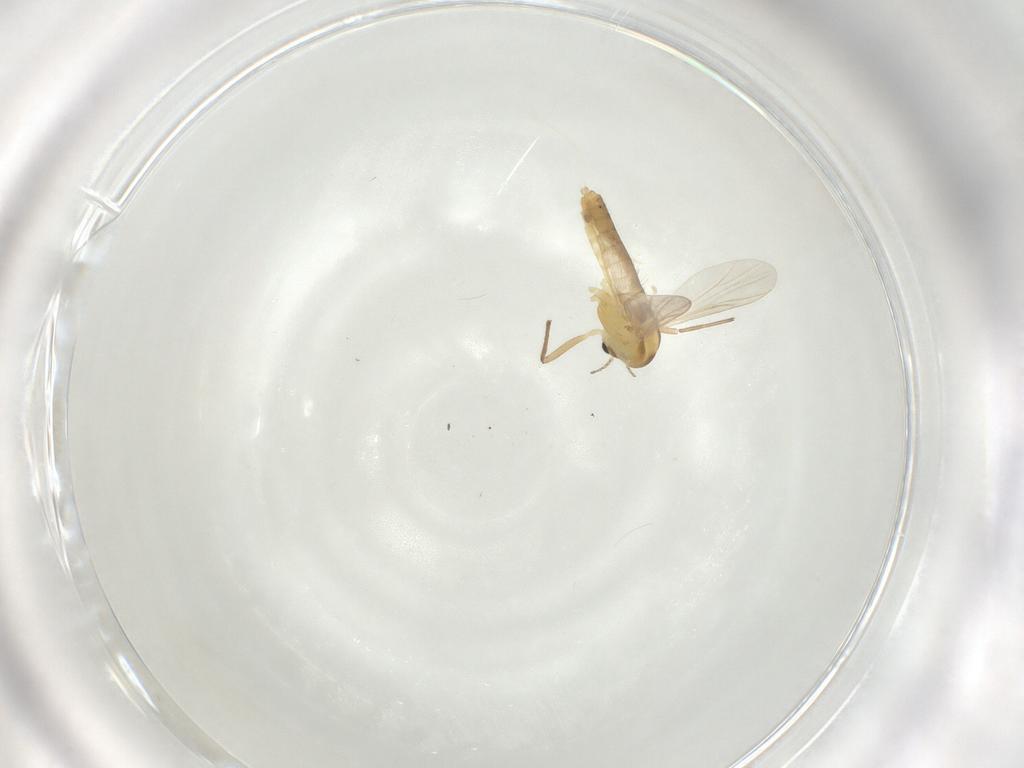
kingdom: Animalia
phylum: Arthropoda
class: Insecta
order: Diptera
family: Chironomidae
